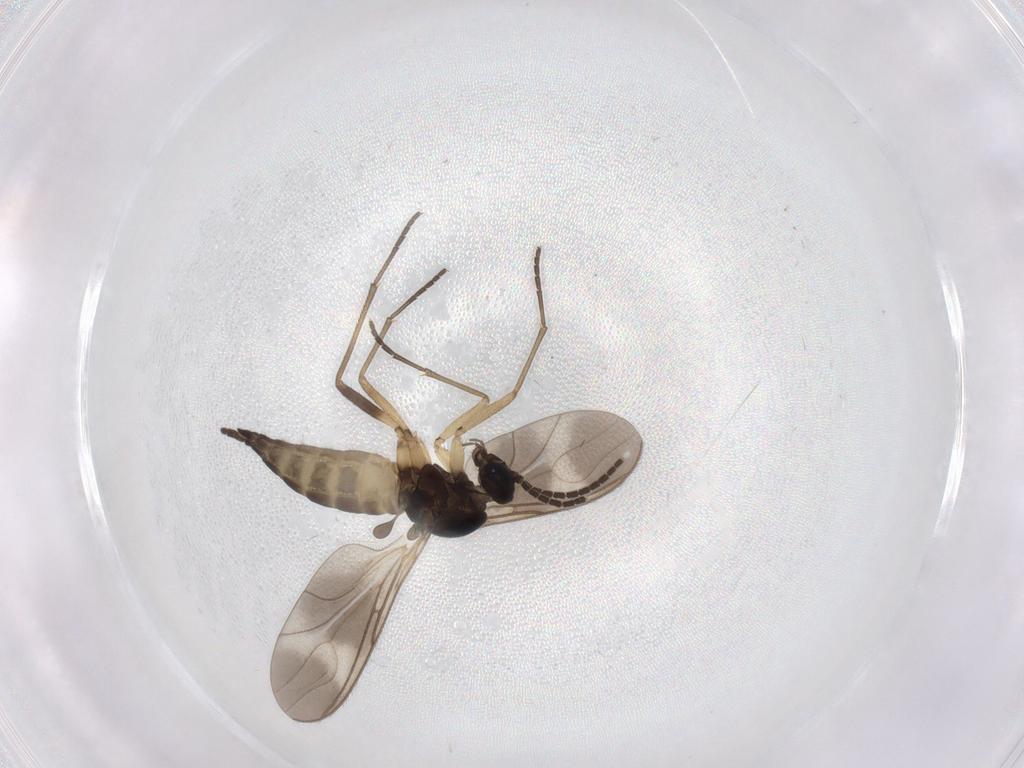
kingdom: Animalia
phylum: Arthropoda
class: Insecta
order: Diptera
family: Sciaridae
